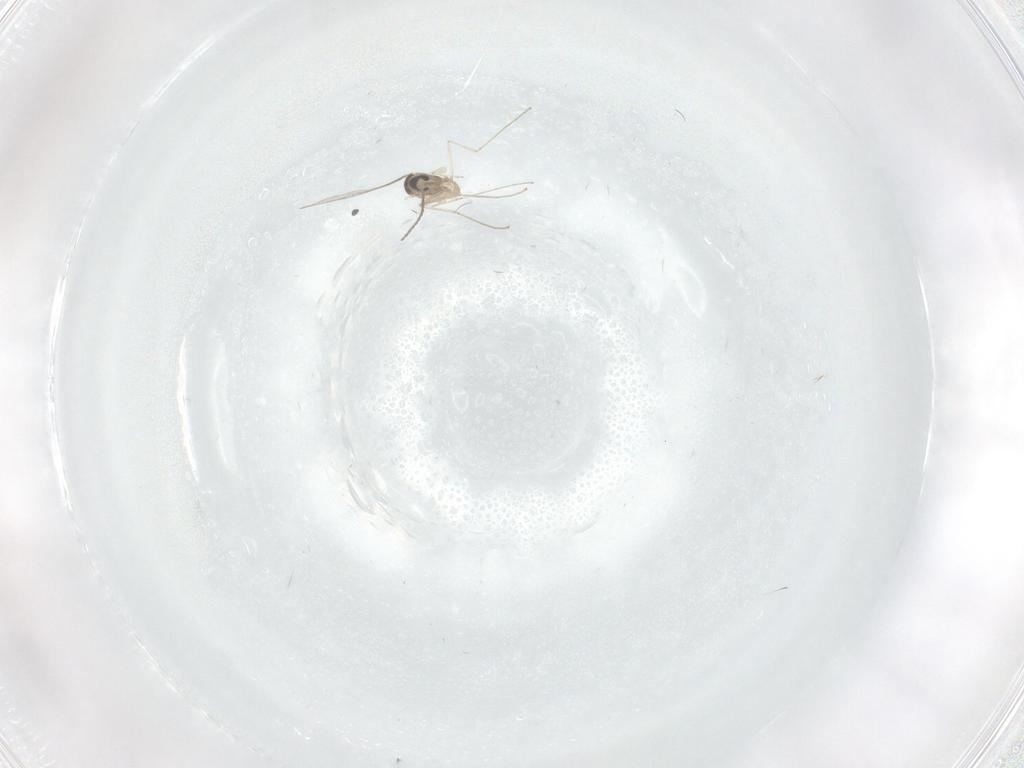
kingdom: Animalia
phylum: Arthropoda
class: Insecta
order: Diptera
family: Cecidomyiidae
